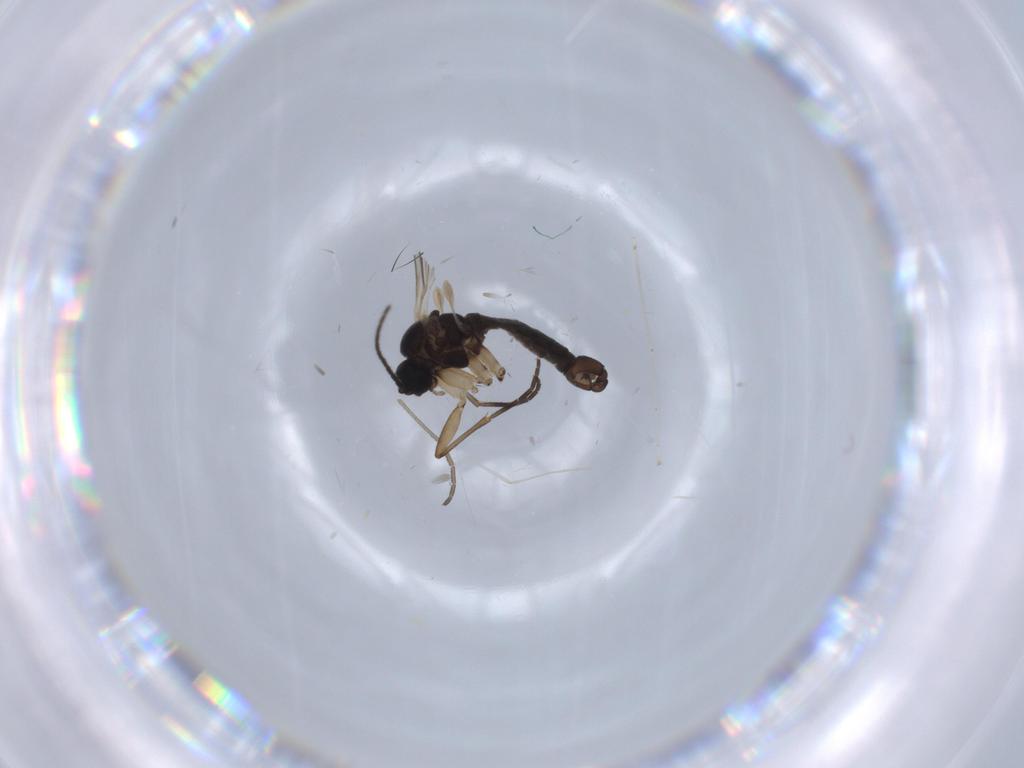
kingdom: Animalia
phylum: Arthropoda
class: Insecta
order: Diptera
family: Sciaridae
